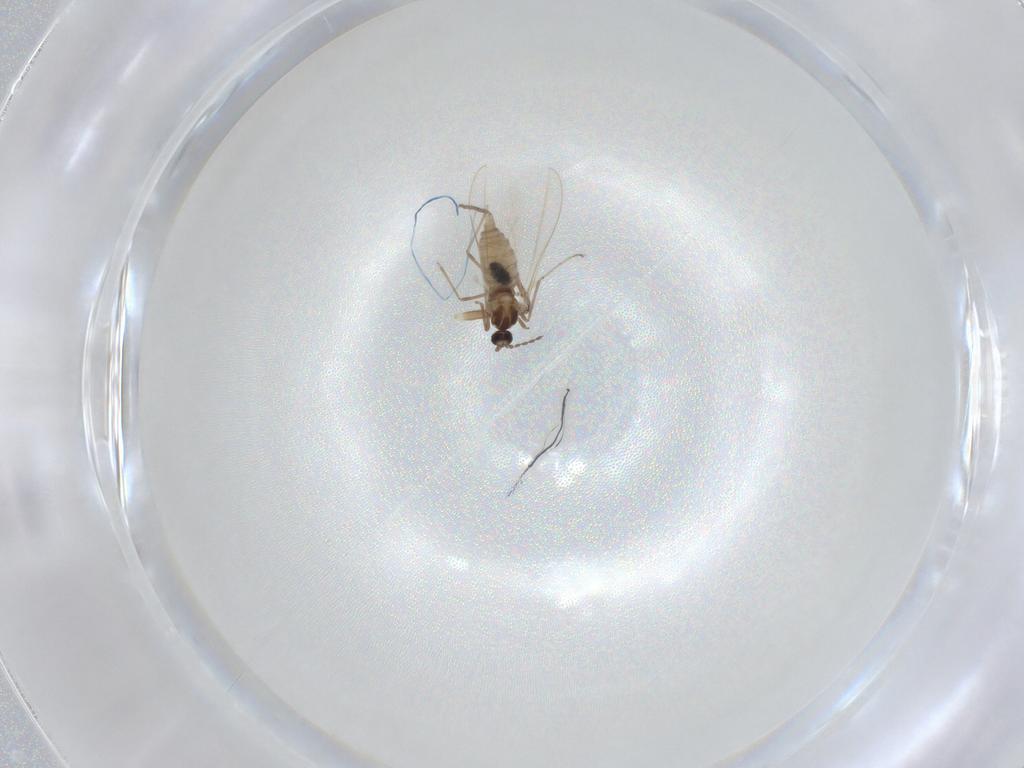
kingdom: Animalia
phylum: Arthropoda
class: Insecta
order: Diptera
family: Cecidomyiidae
